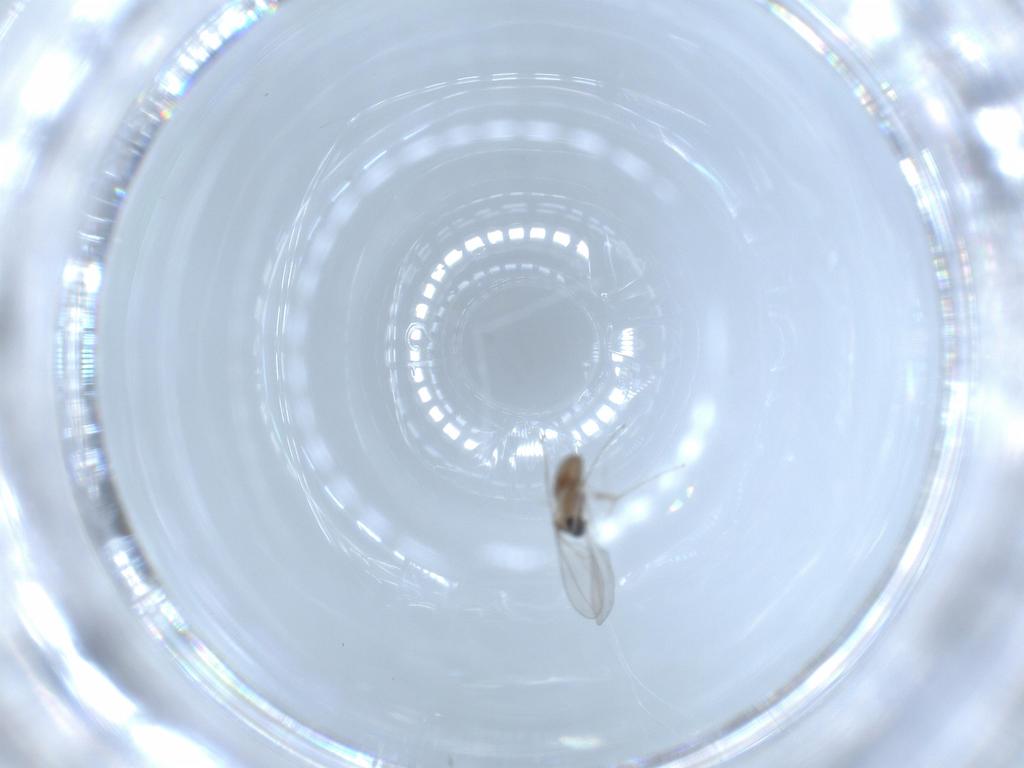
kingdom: Animalia
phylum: Arthropoda
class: Insecta
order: Diptera
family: Cecidomyiidae
